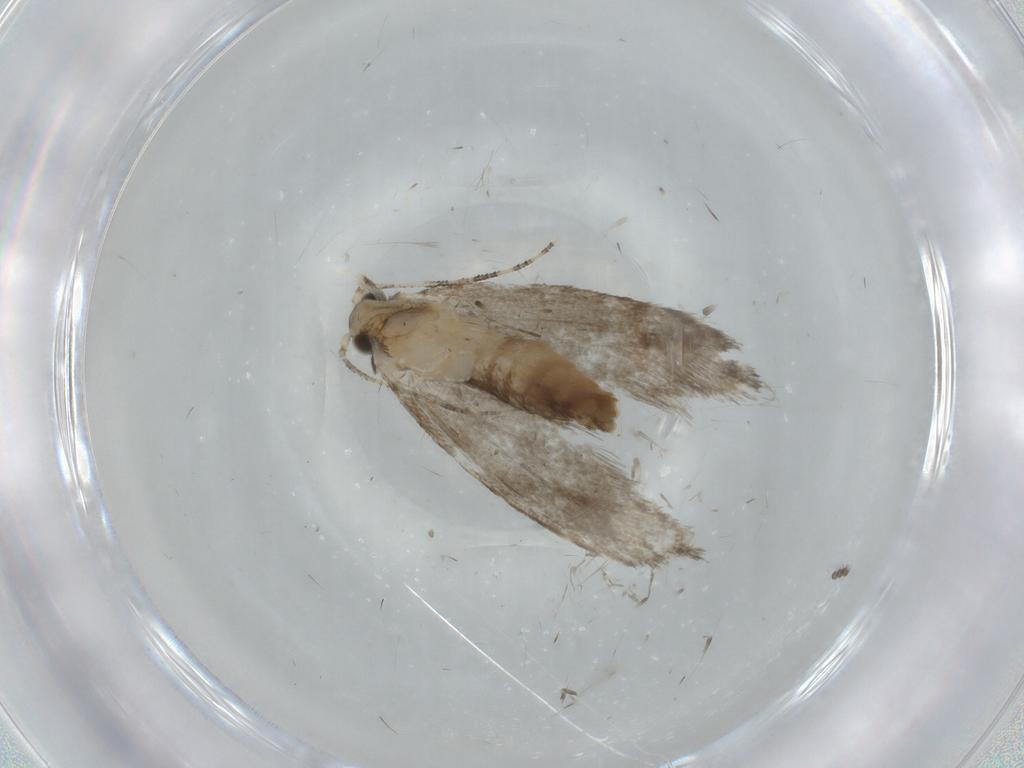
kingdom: Animalia
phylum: Arthropoda
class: Insecta
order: Lepidoptera
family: Tineidae
